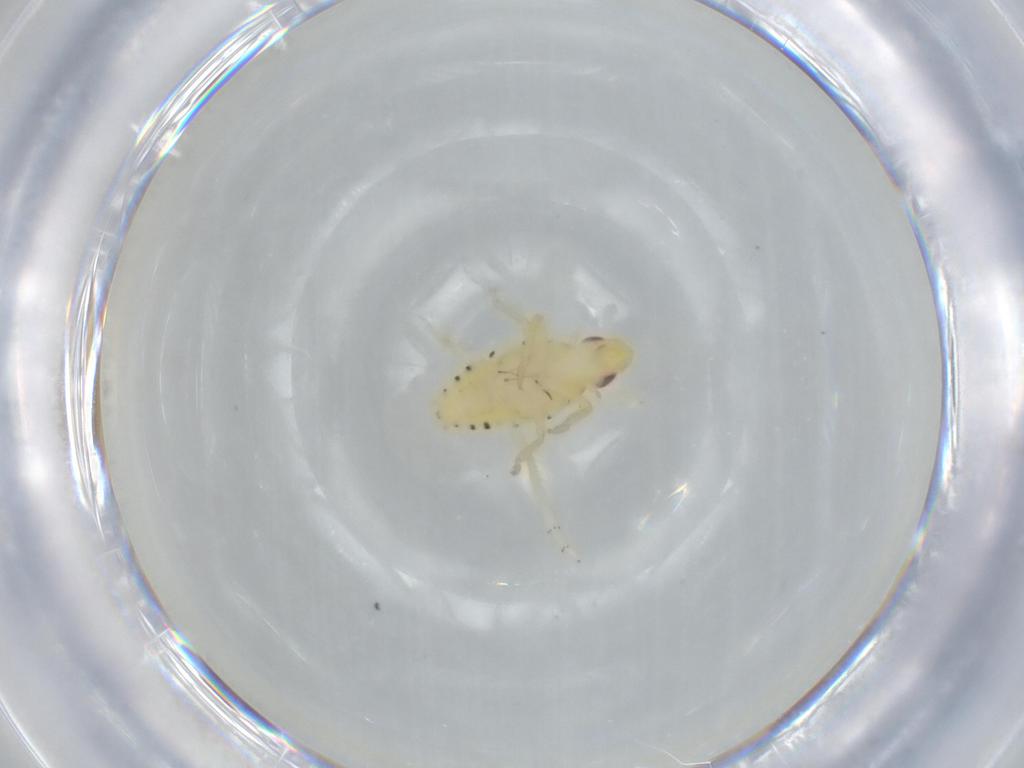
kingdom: Animalia
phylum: Arthropoda
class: Insecta
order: Hemiptera
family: Tropiduchidae
